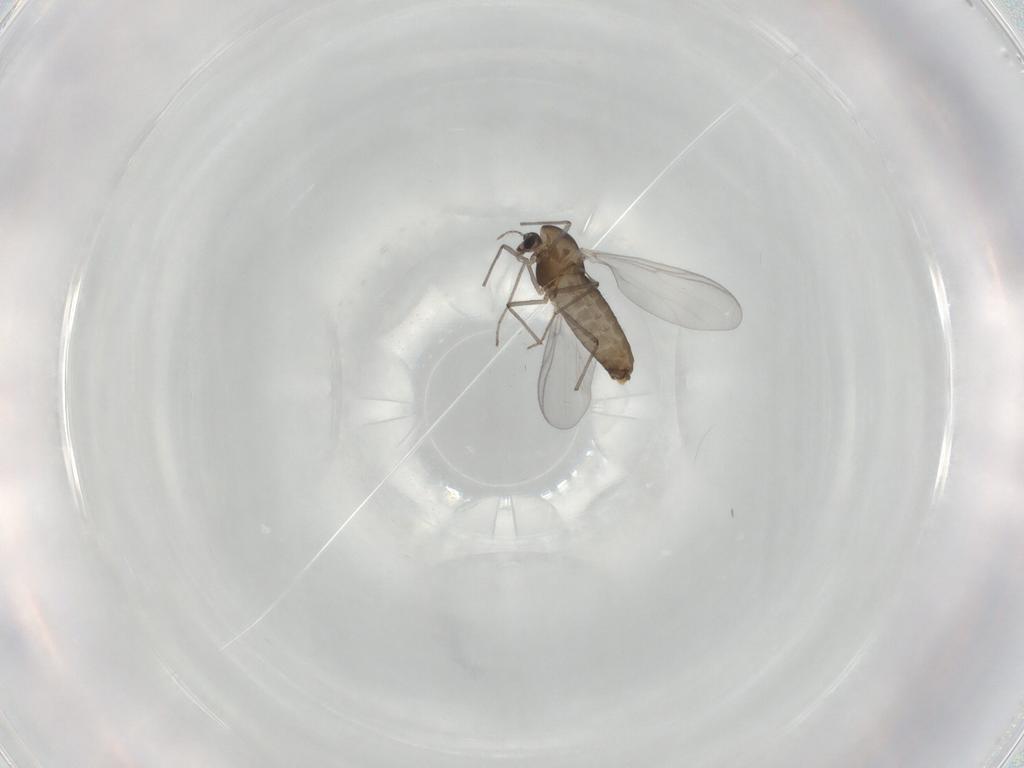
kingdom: Animalia
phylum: Arthropoda
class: Insecta
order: Diptera
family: Chironomidae
